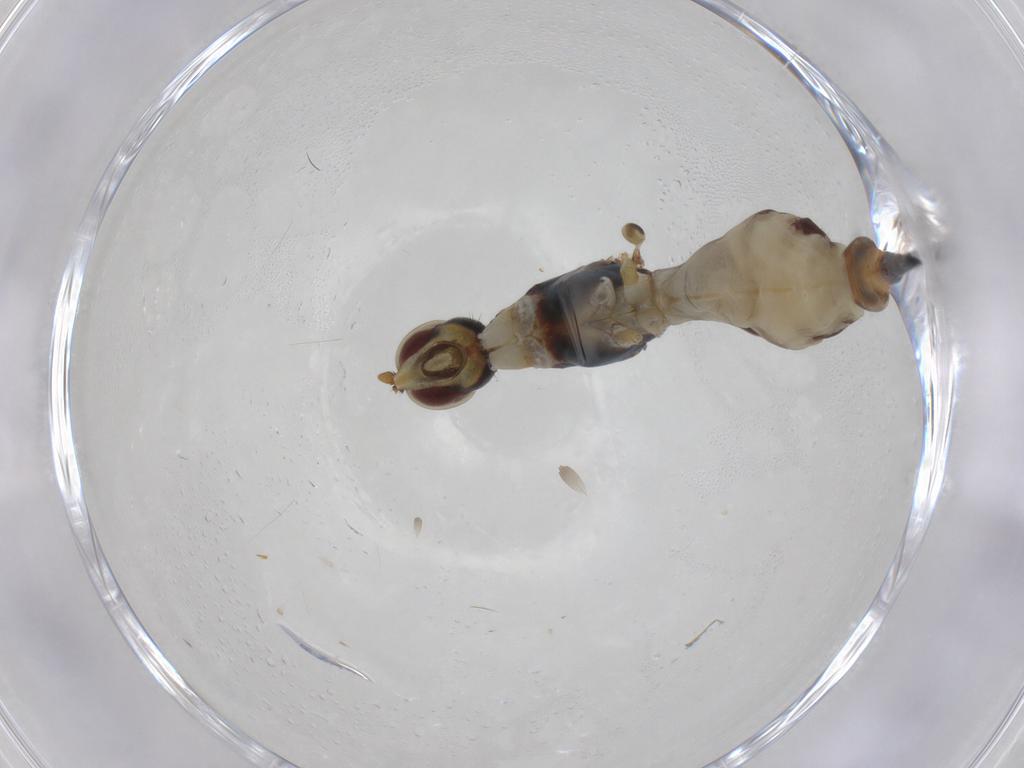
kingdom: Animalia
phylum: Arthropoda
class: Insecta
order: Diptera
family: Micropezidae
